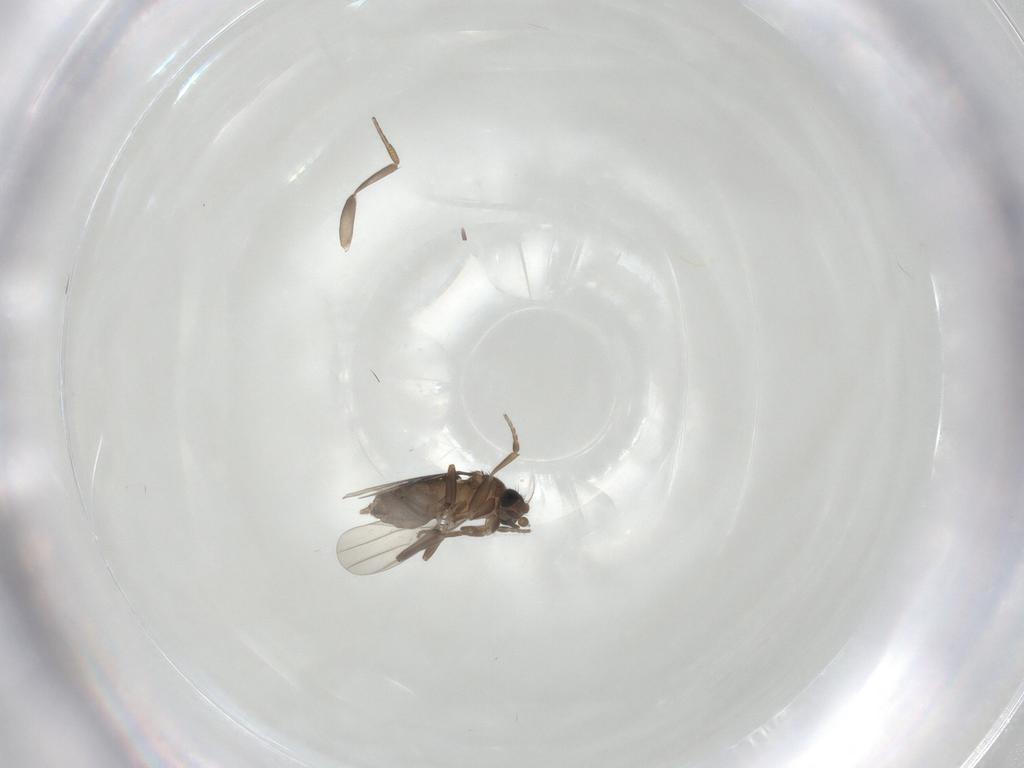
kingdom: Animalia
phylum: Arthropoda
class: Insecta
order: Diptera
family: Phoridae
